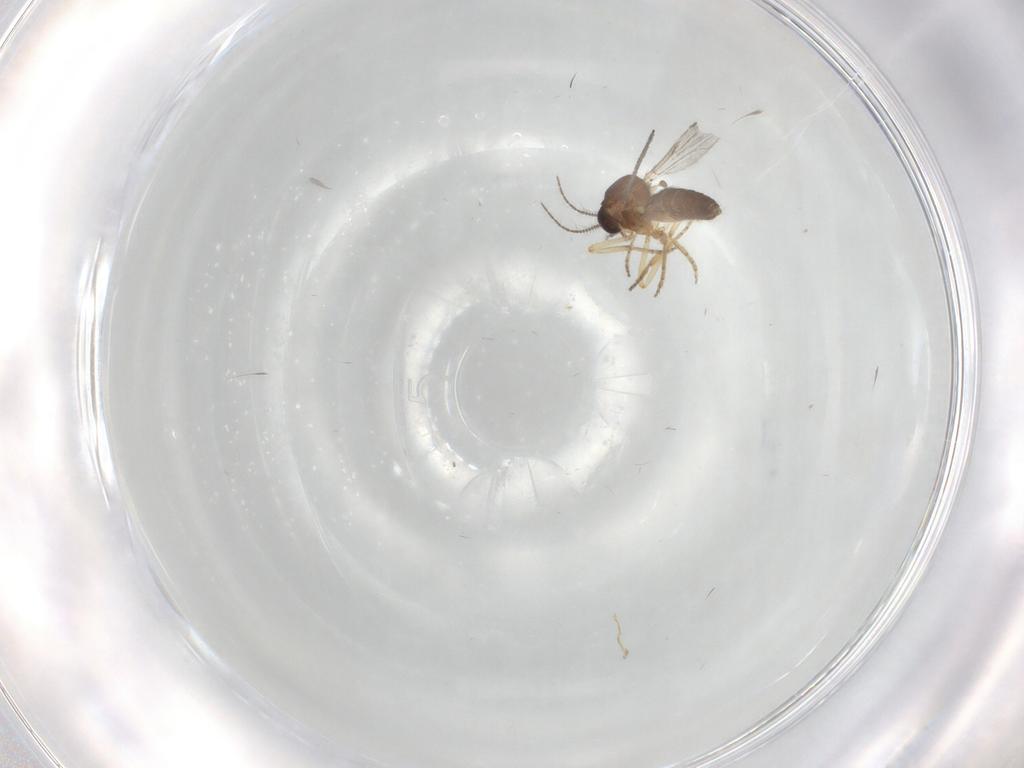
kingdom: Animalia
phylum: Arthropoda
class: Insecta
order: Diptera
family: Ceratopogonidae
